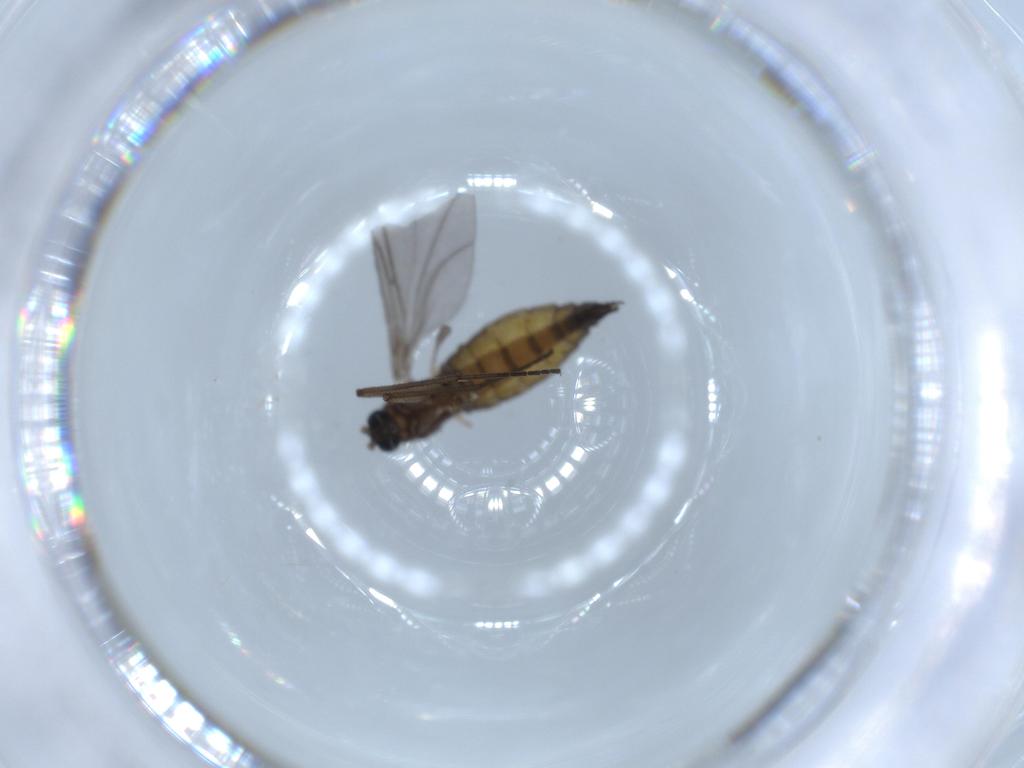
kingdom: Animalia
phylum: Arthropoda
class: Insecta
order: Diptera
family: Sciaridae
